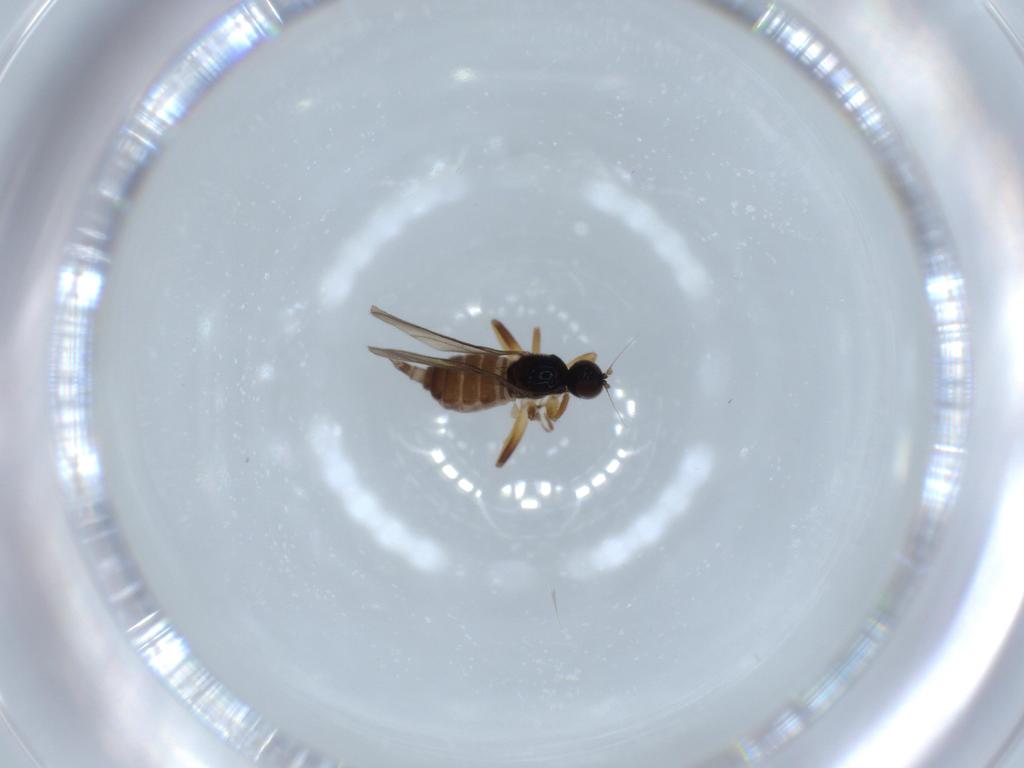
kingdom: Animalia
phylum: Arthropoda
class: Insecta
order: Diptera
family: Hybotidae
